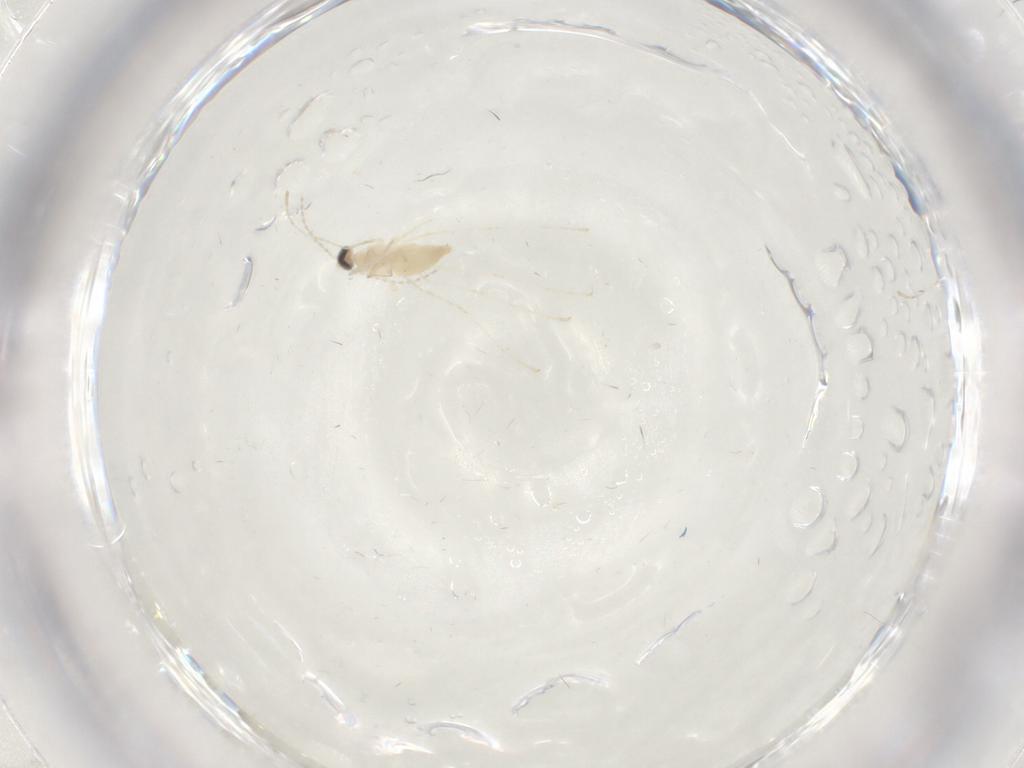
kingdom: Animalia
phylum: Arthropoda
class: Insecta
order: Diptera
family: Cecidomyiidae
